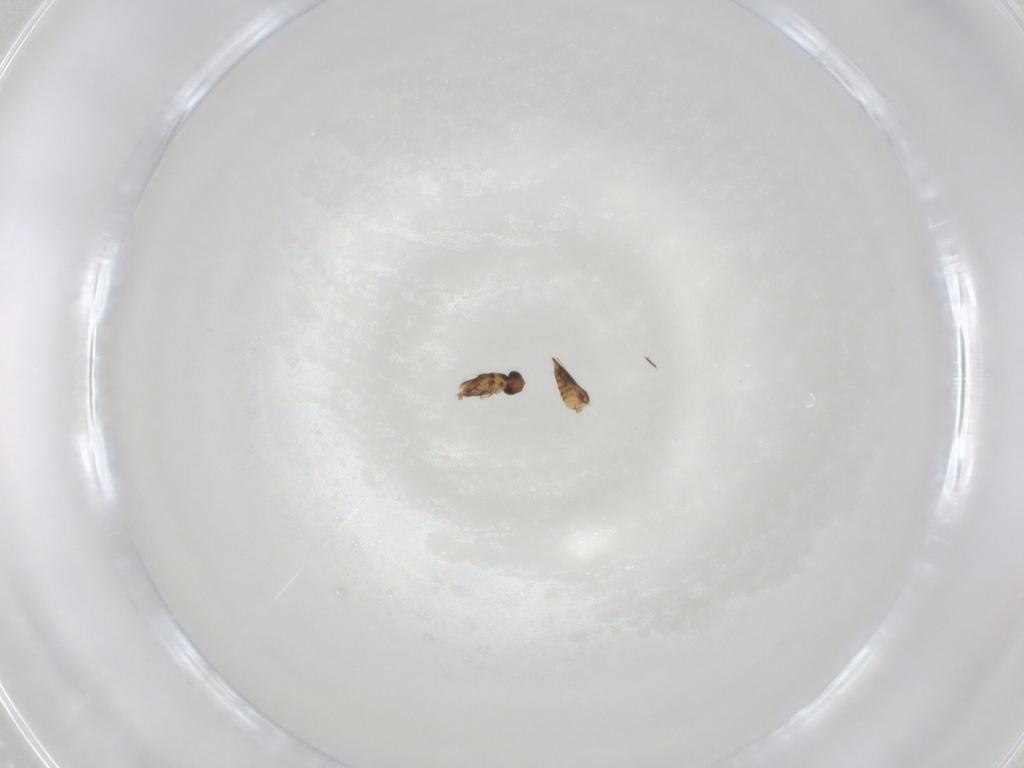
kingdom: Animalia
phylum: Arthropoda
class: Insecta
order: Hymenoptera
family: Mymaridae
